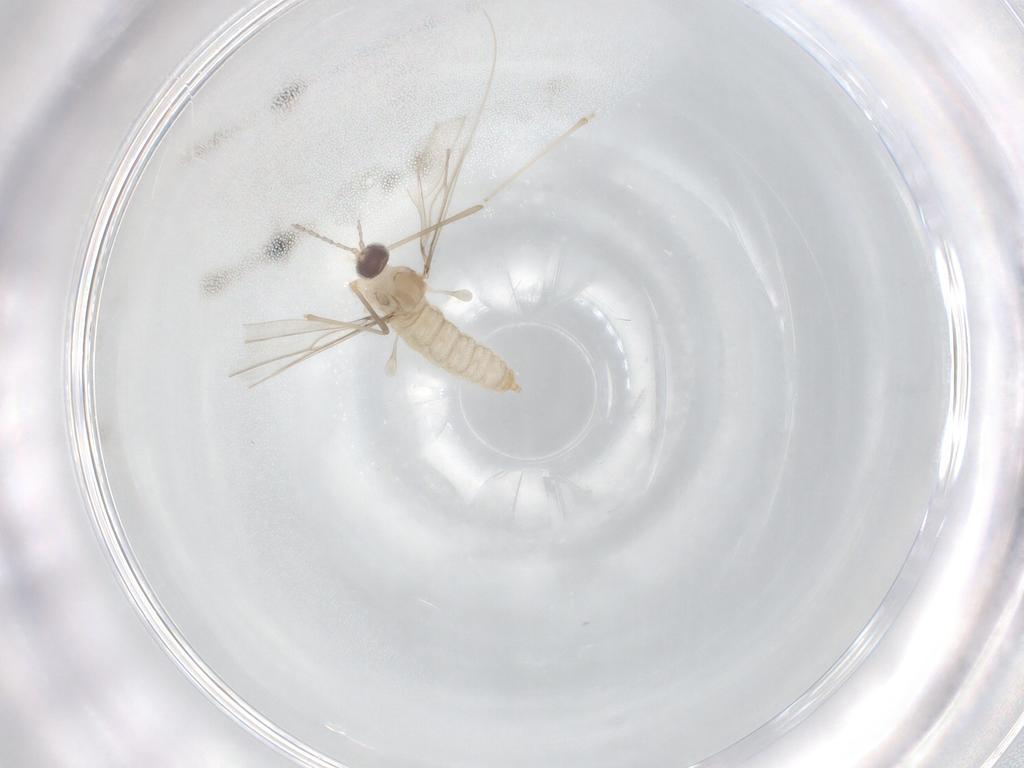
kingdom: Animalia
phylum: Arthropoda
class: Insecta
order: Diptera
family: Cecidomyiidae
